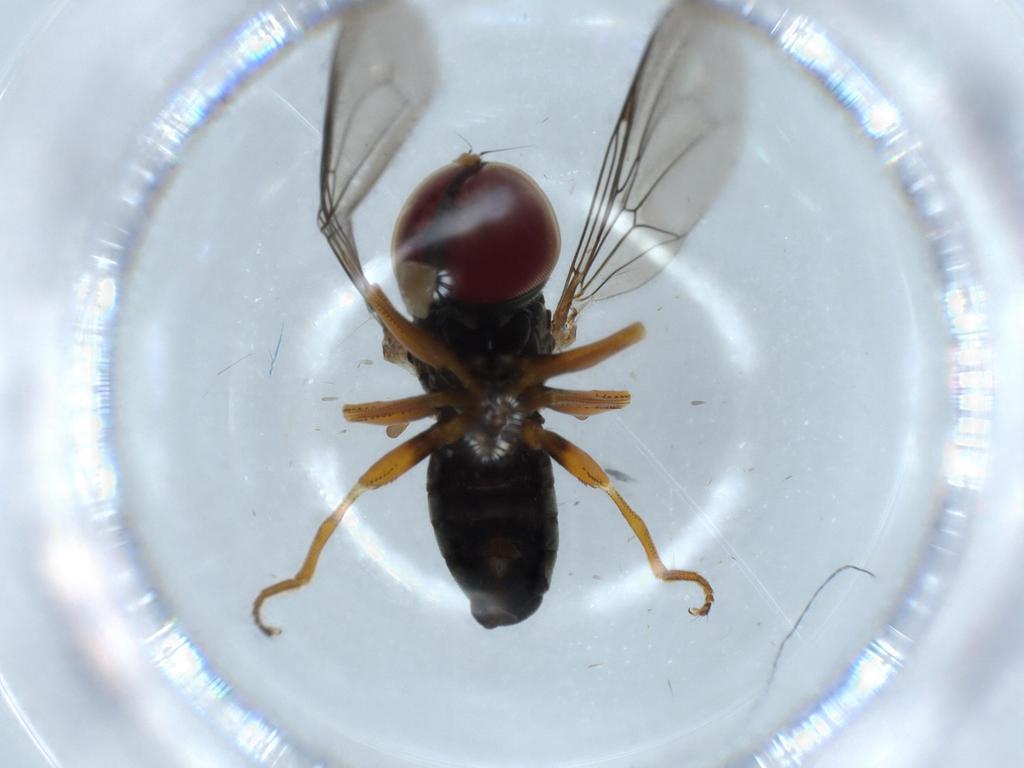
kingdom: Animalia
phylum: Arthropoda
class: Insecta
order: Diptera
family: Pipunculidae
